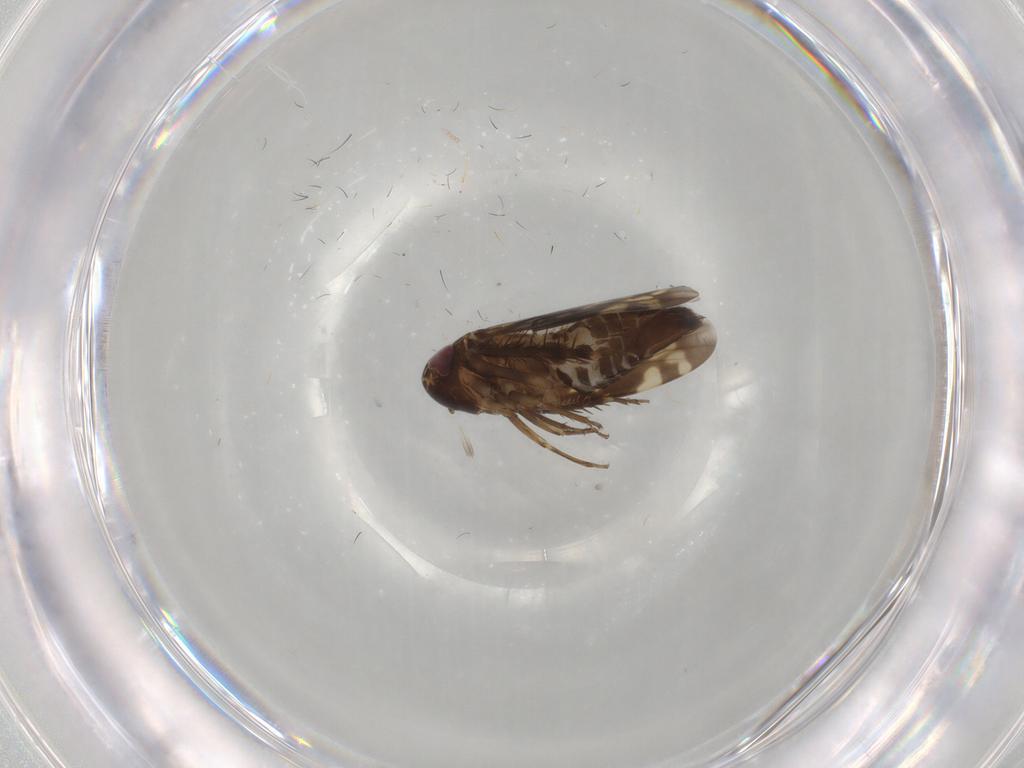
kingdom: Animalia
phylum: Arthropoda
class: Insecta
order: Hemiptera
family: Cicadellidae
